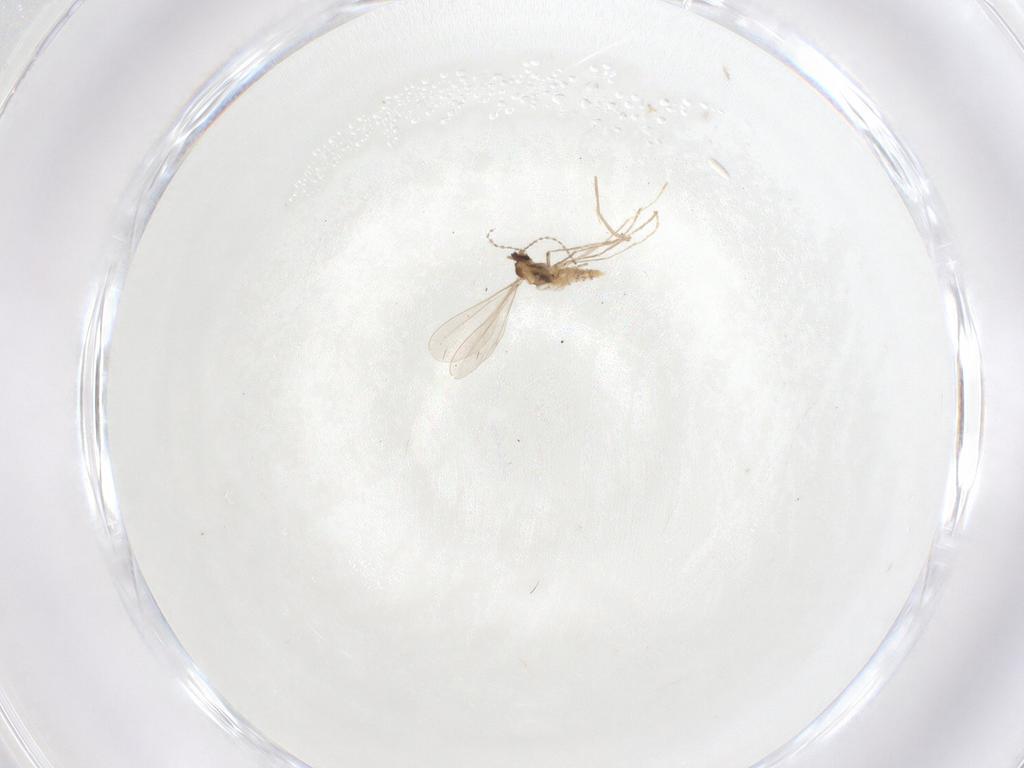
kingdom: Animalia
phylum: Arthropoda
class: Insecta
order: Diptera
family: Cecidomyiidae
